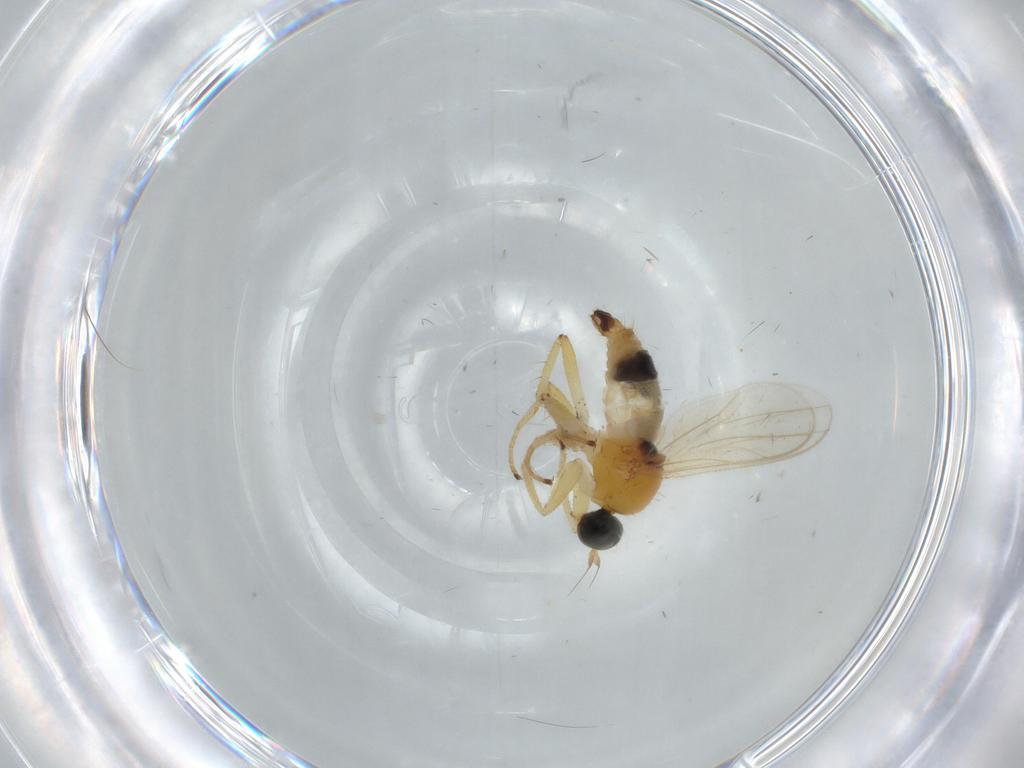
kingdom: Animalia
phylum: Arthropoda
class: Insecta
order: Diptera
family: Hybotidae
